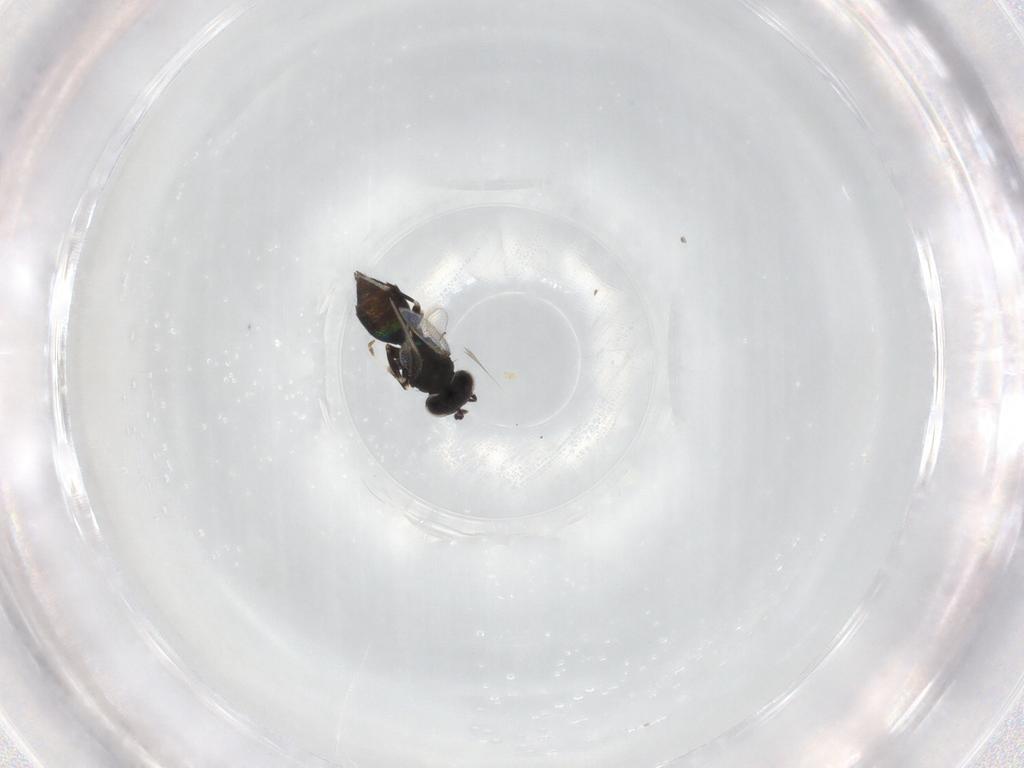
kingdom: Animalia
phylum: Arthropoda
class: Insecta
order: Hymenoptera
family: Eulophidae
